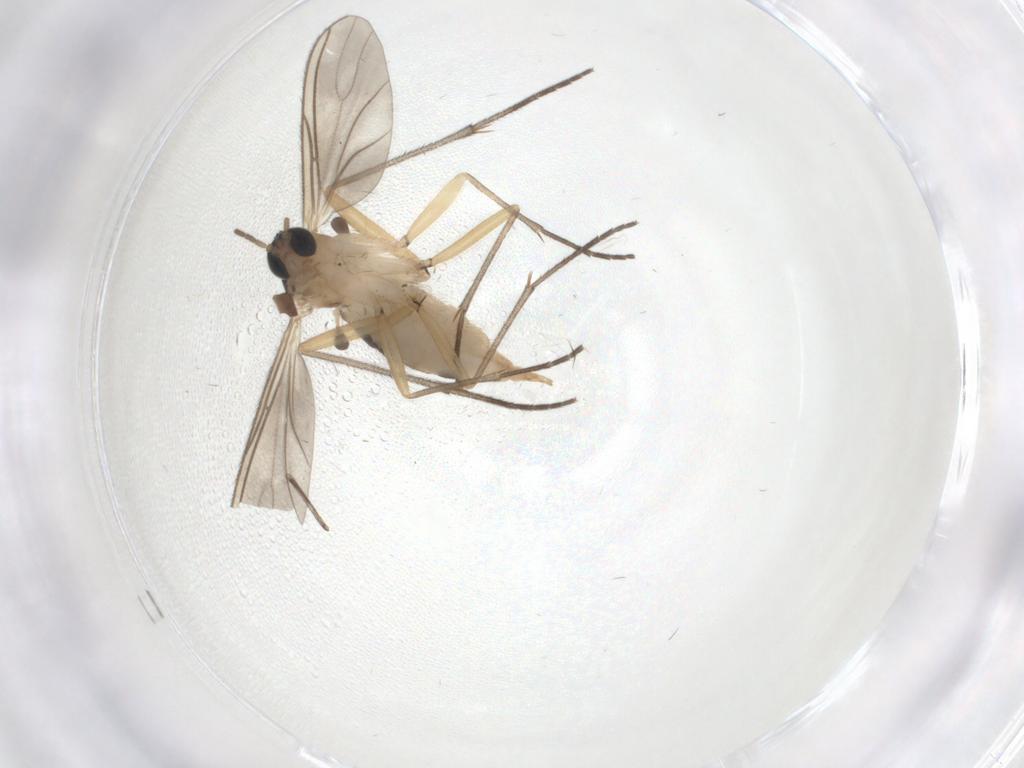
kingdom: Animalia
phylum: Arthropoda
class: Insecta
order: Diptera
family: Sciaridae
